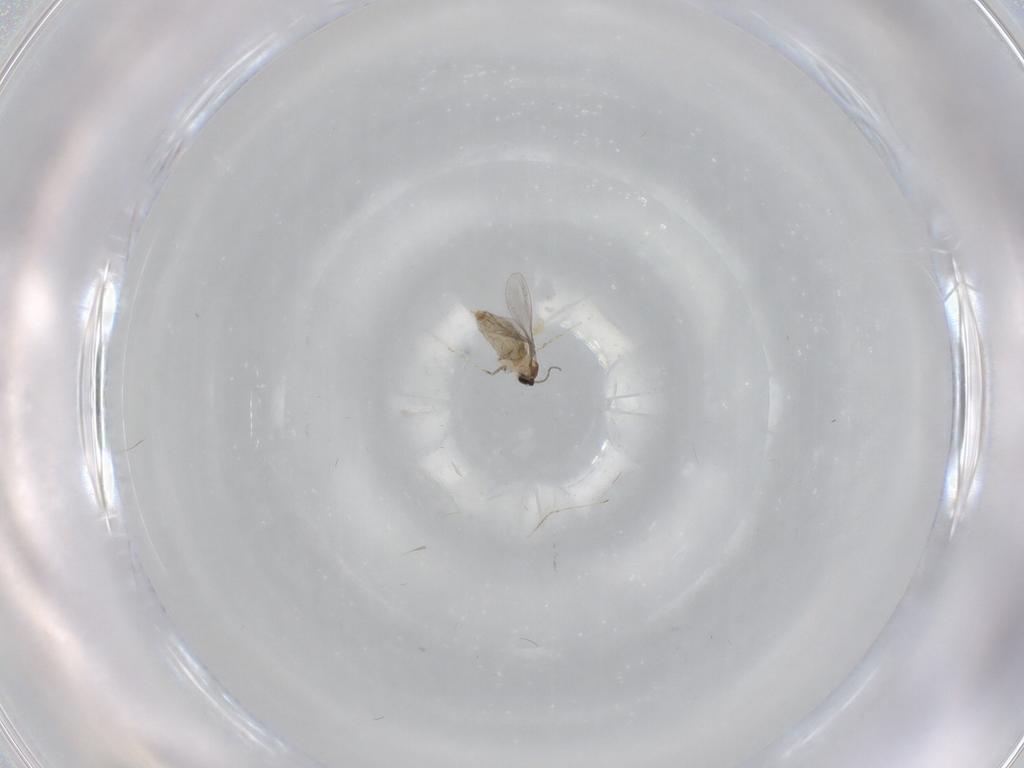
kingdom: Animalia
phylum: Arthropoda
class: Insecta
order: Diptera
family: Cecidomyiidae
